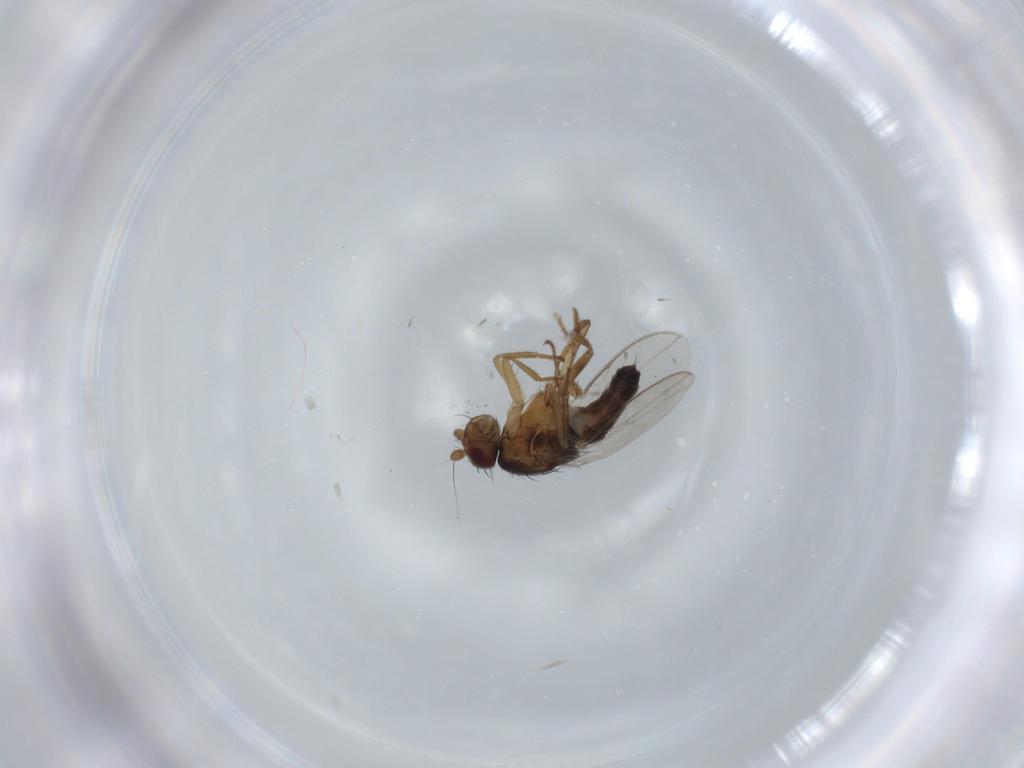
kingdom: Animalia
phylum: Arthropoda
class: Insecta
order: Diptera
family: Sphaeroceridae
